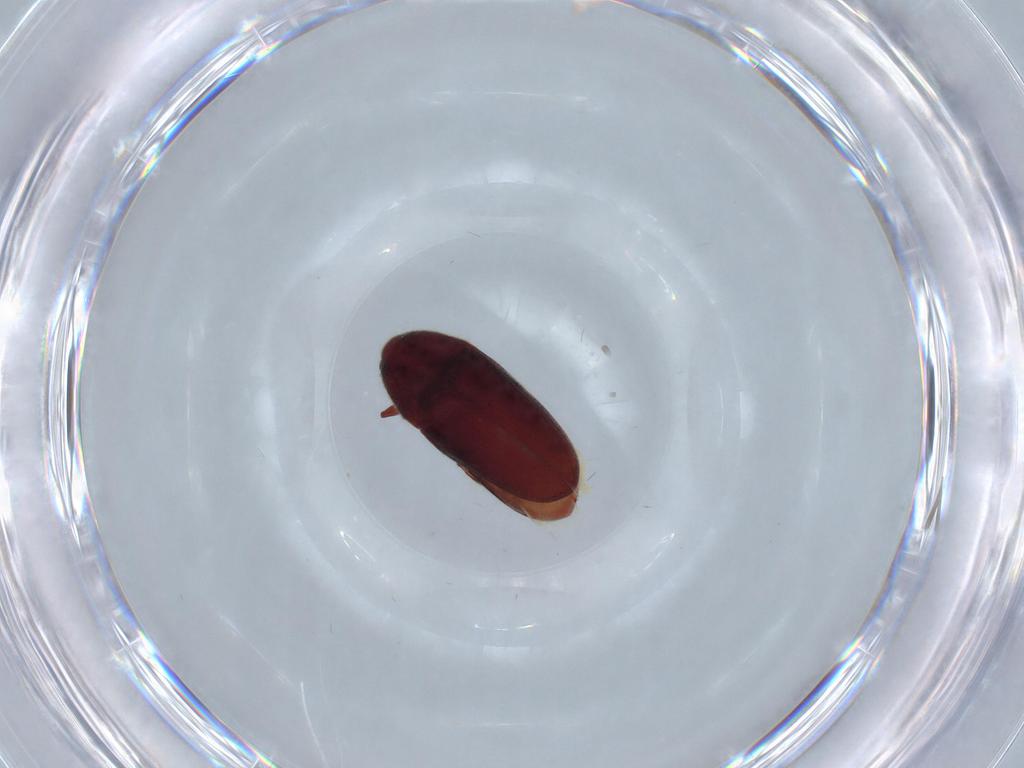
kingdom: Animalia
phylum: Arthropoda
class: Insecta
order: Coleoptera
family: Throscidae
